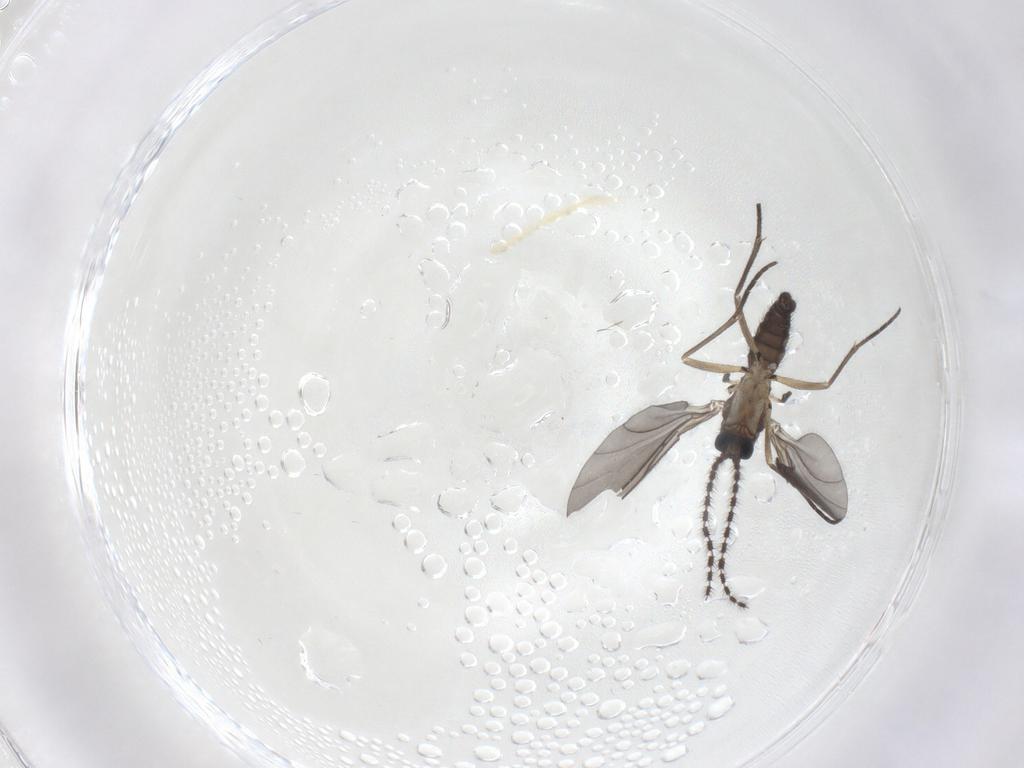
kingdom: Animalia
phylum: Arthropoda
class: Insecta
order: Diptera
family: Sciaridae
